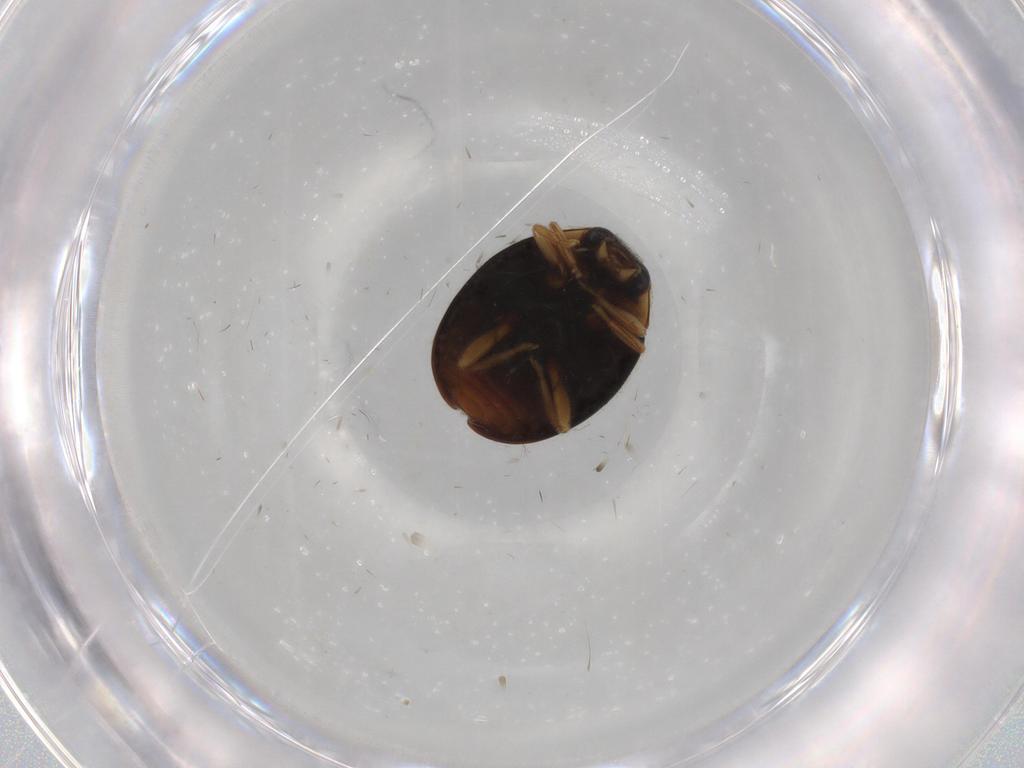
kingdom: Animalia
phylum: Arthropoda
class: Insecta
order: Coleoptera
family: Coccinellidae
